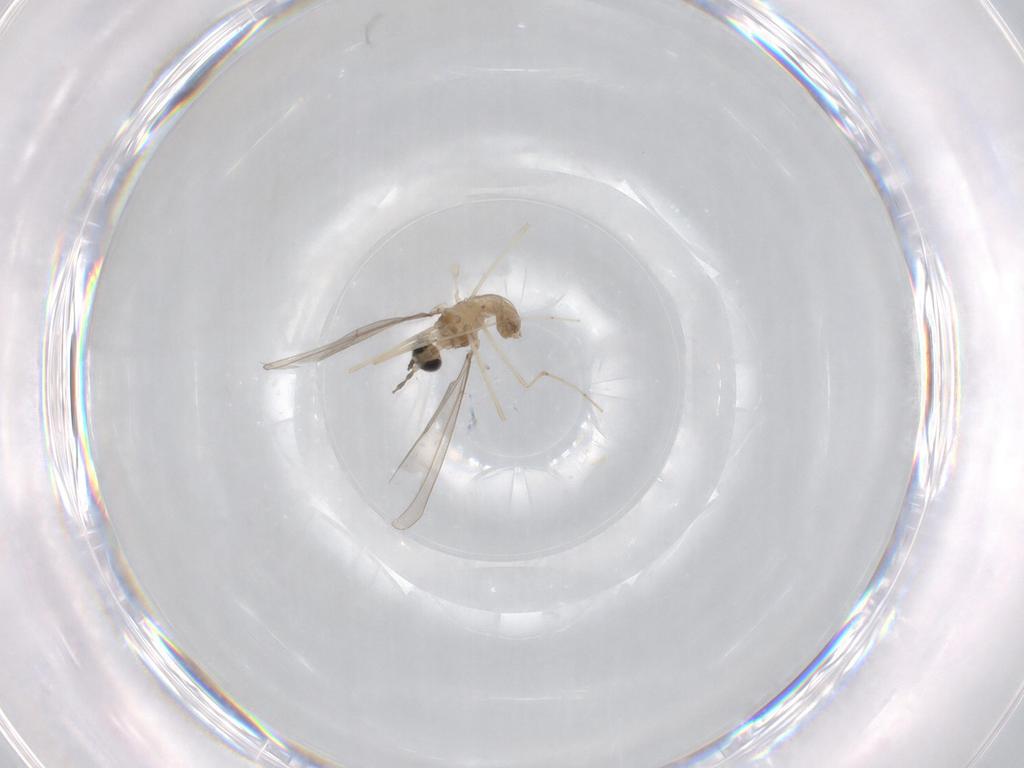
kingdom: Animalia
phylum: Arthropoda
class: Insecta
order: Diptera
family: Cecidomyiidae
